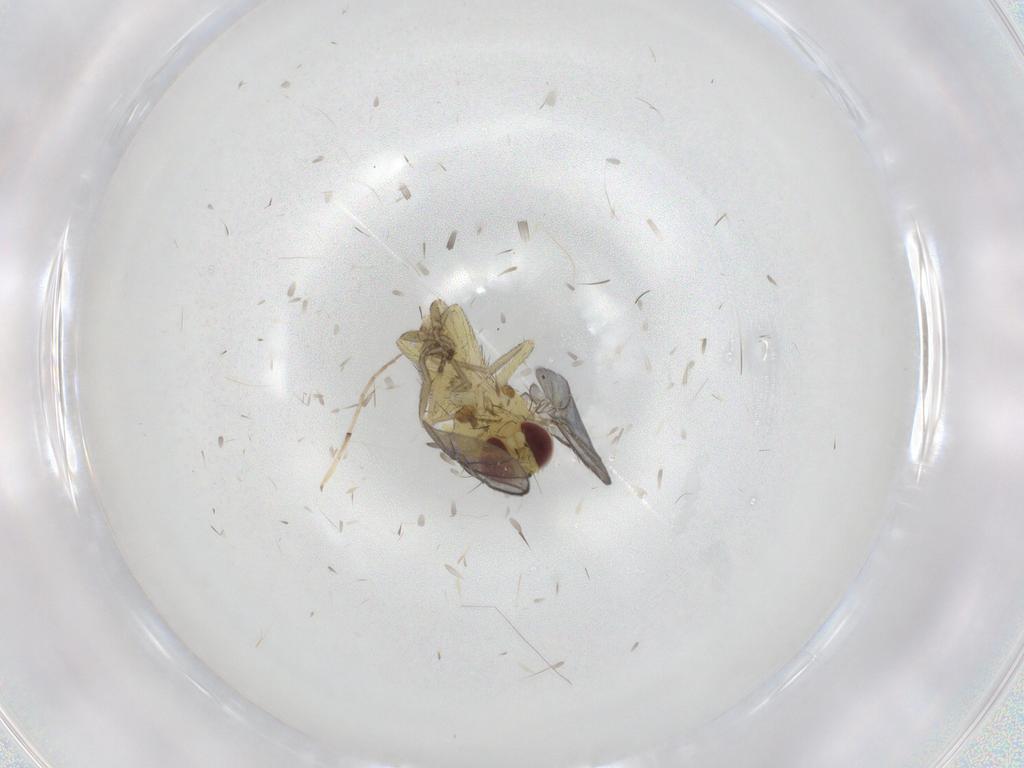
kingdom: Animalia
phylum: Arthropoda
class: Insecta
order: Diptera
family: Agromyzidae
